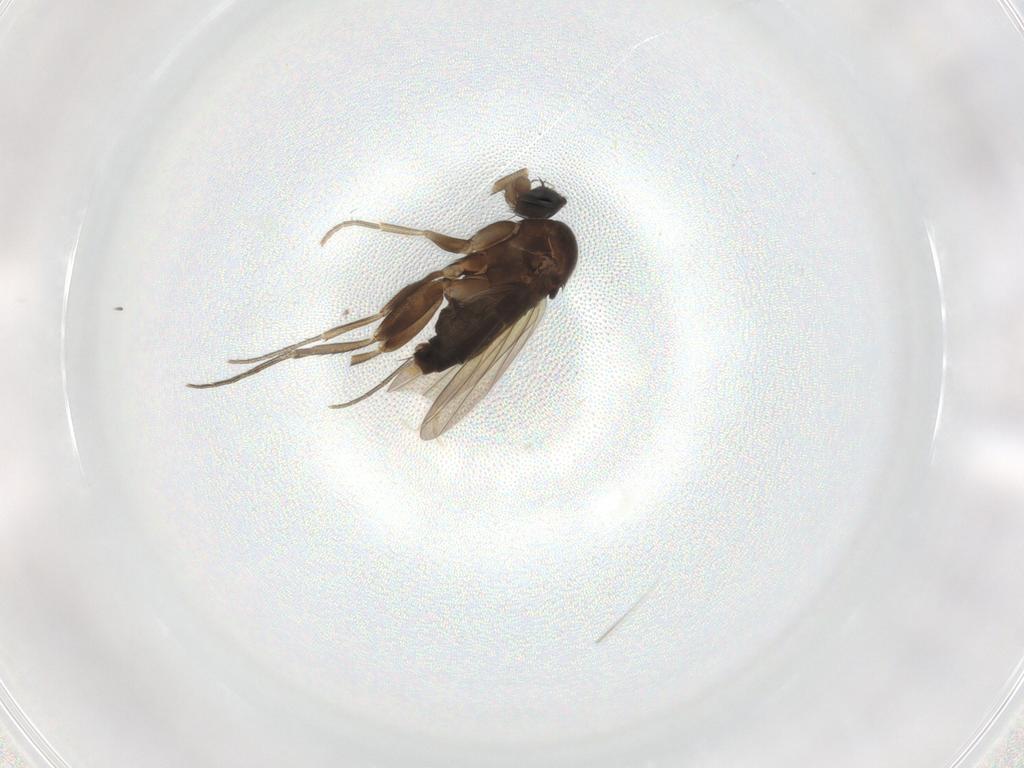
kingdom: Animalia
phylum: Arthropoda
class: Insecta
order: Diptera
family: Phoridae
